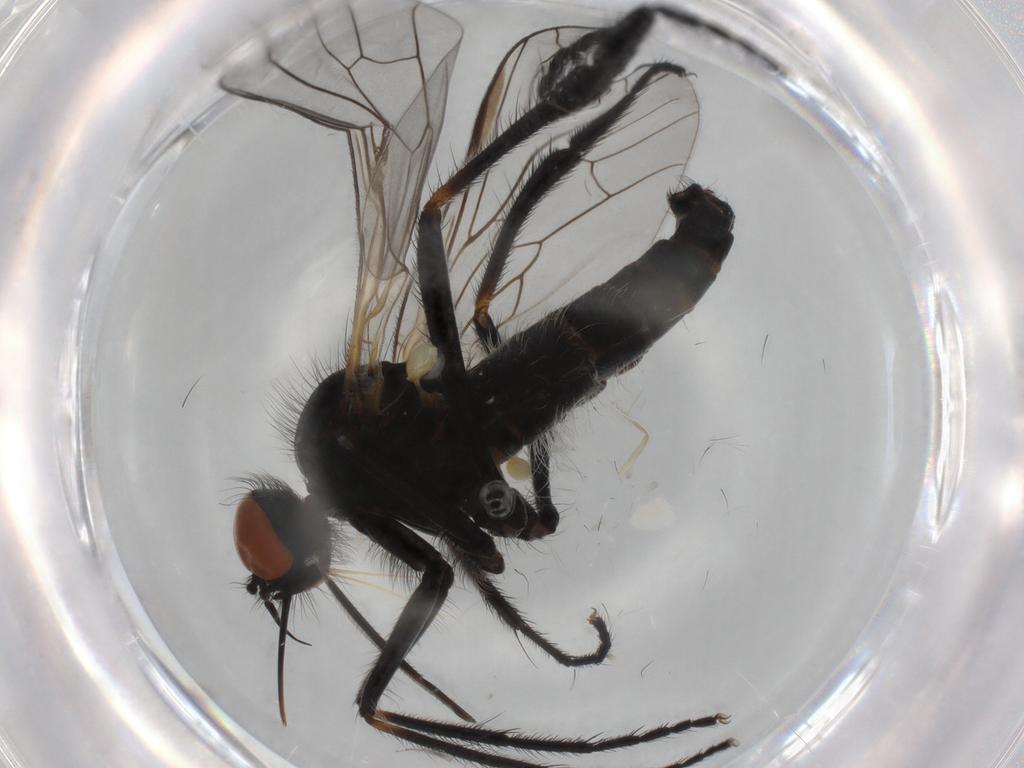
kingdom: Animalia
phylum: Arthropoda
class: Insecta
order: Diptera
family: Empididae
